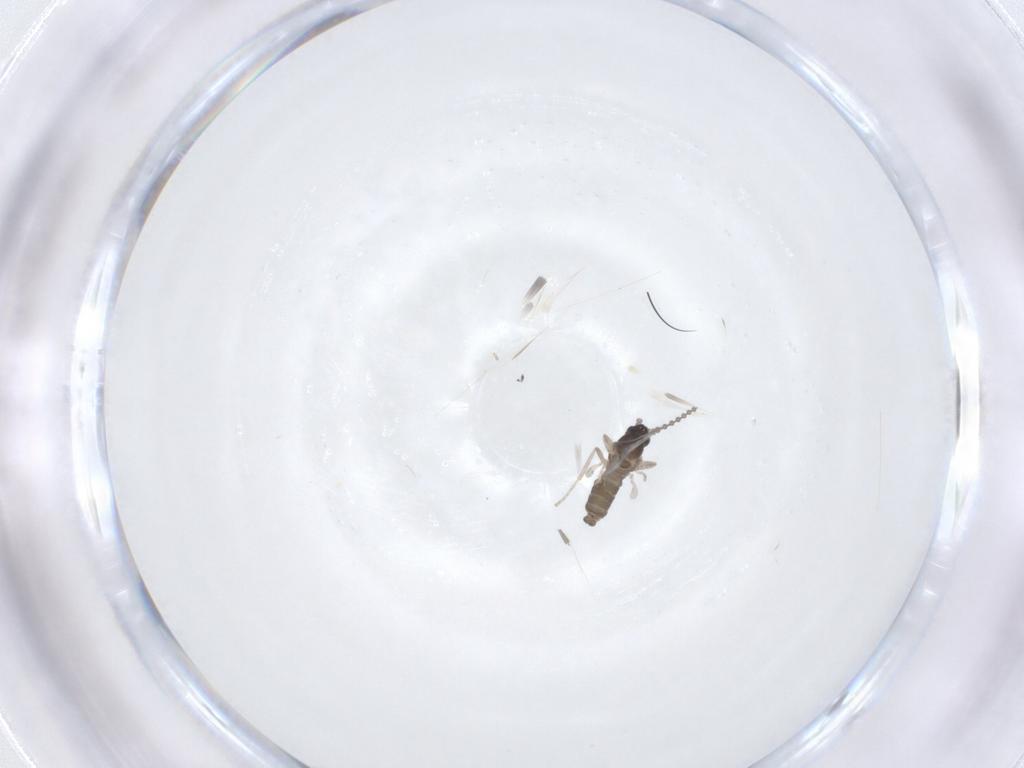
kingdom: Animalia
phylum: Arthropoda
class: Insecta
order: Diptera
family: Cecidomyiidae
